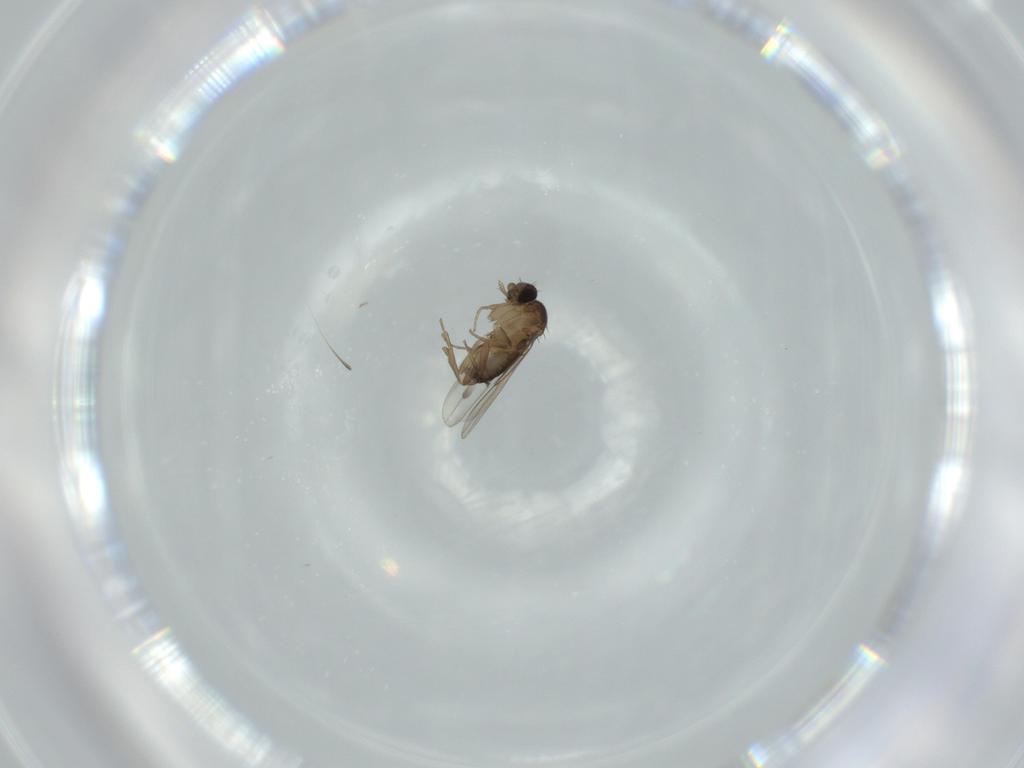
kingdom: Animalia
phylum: Arthropoda
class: Insecta
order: Diptera
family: Phoridae
